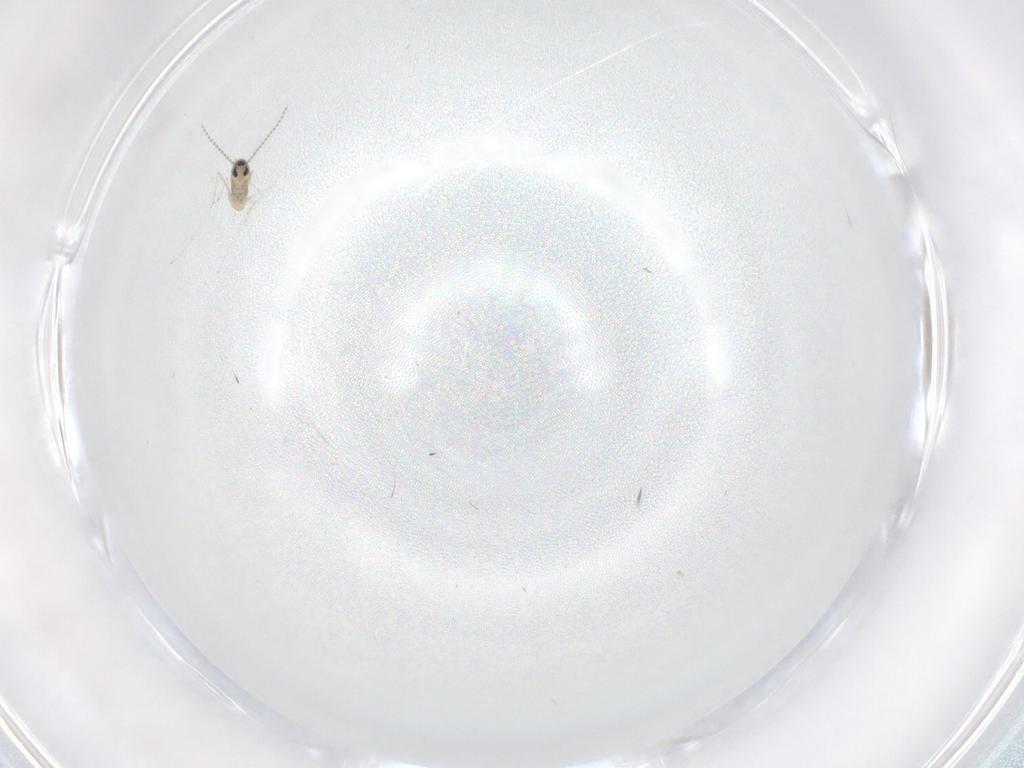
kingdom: Animalia
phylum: Arthropoda
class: Insecta
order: Diptera
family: Cecidomyiidae
